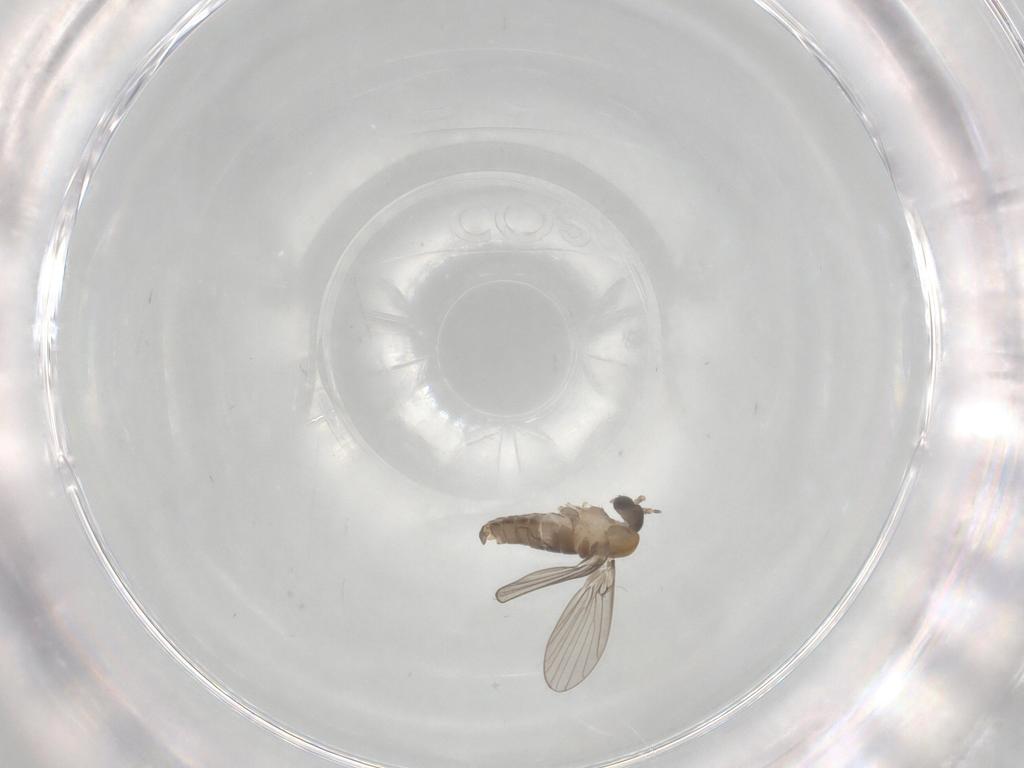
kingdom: Animalia
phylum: Arthropoda
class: Insecta
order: Diptera
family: Psychodidae
